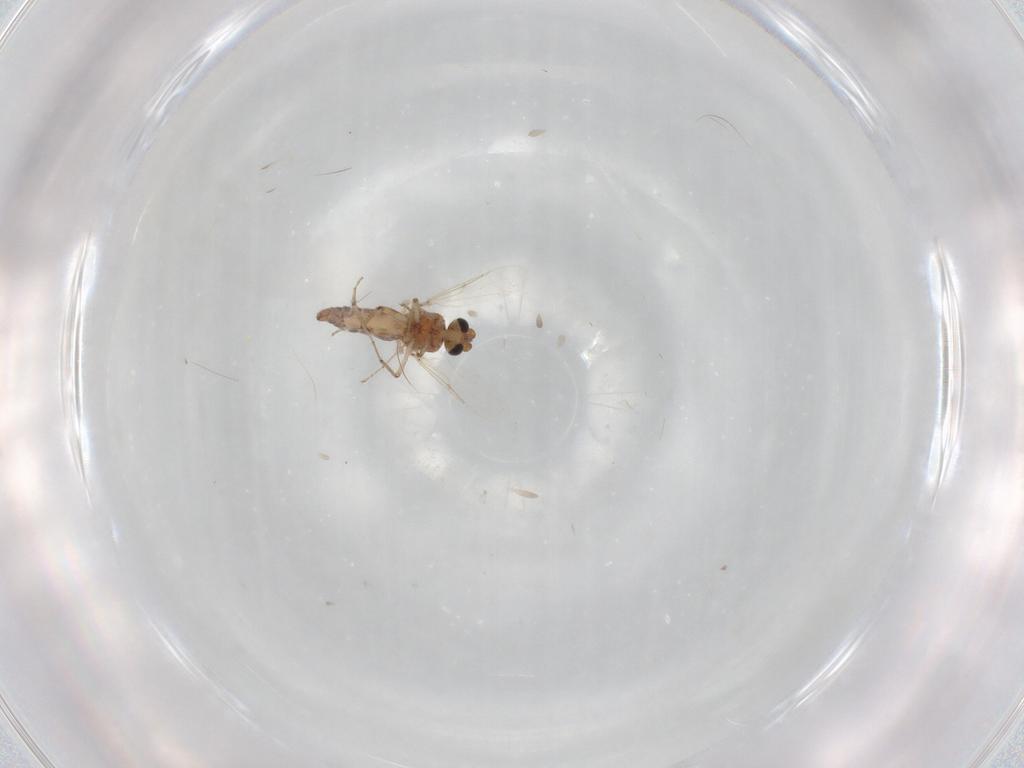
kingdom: Animalia
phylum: Arthropoda
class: Insecta
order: Diptera
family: Ceratopogonidae
